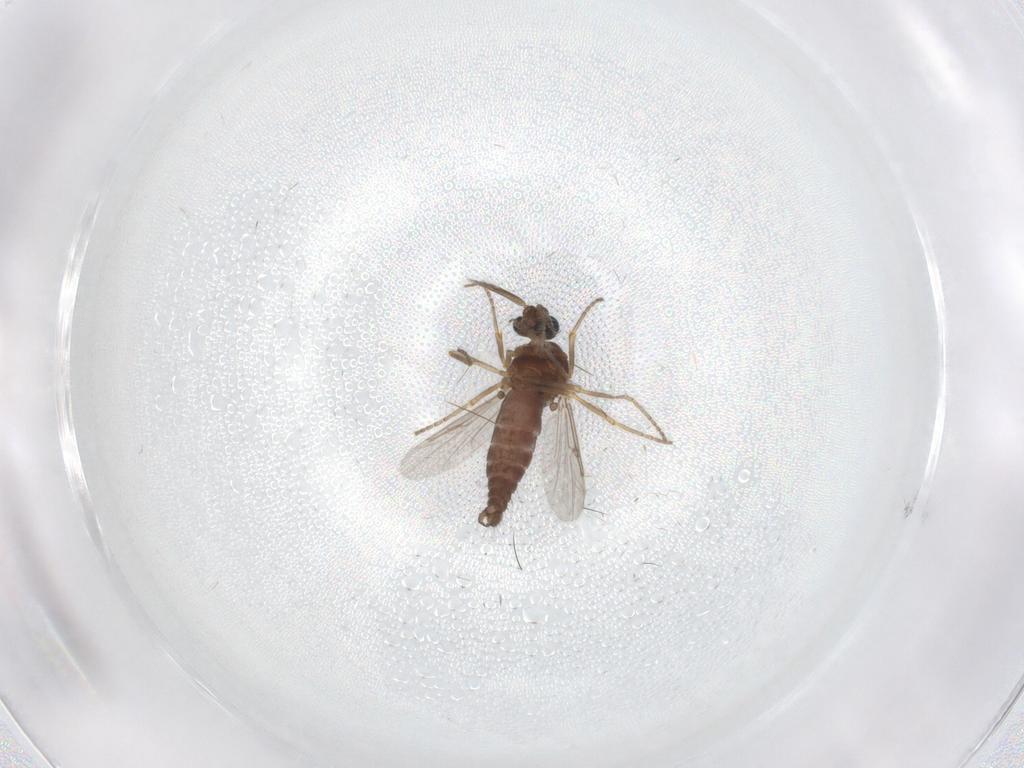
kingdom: Animalia
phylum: Arthropoda
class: Insecta
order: Diptera
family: Ceratopogonidae
